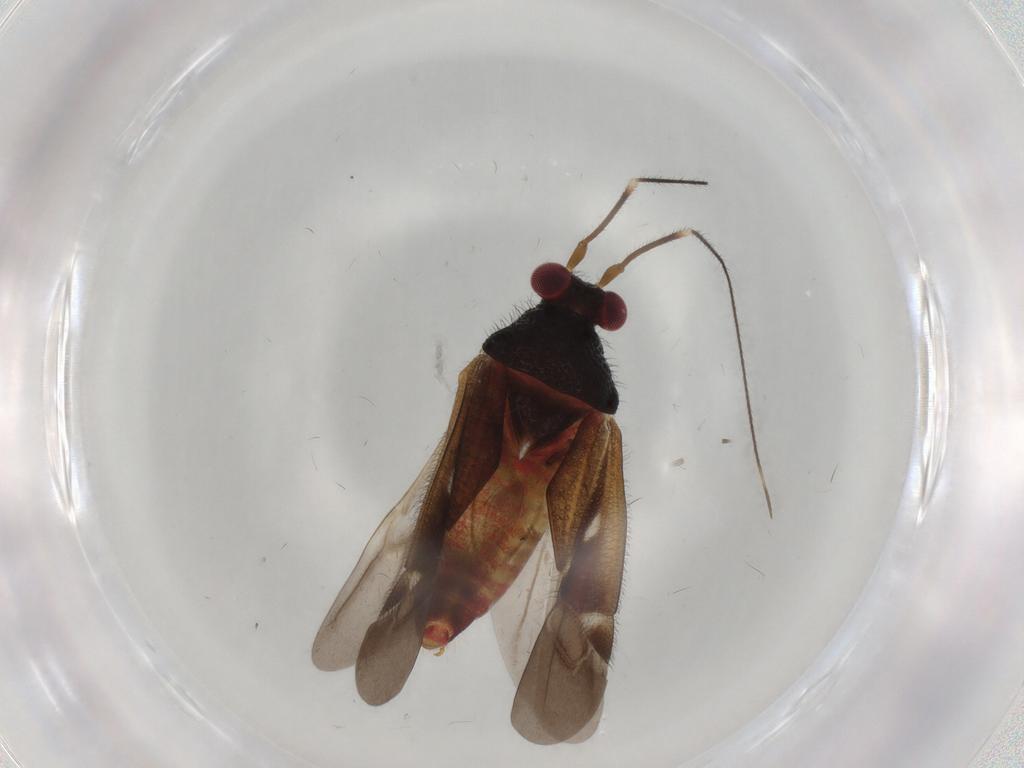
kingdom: Animalia
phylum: Arthropoda
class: Insecta
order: Hemiptera
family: Miridae
